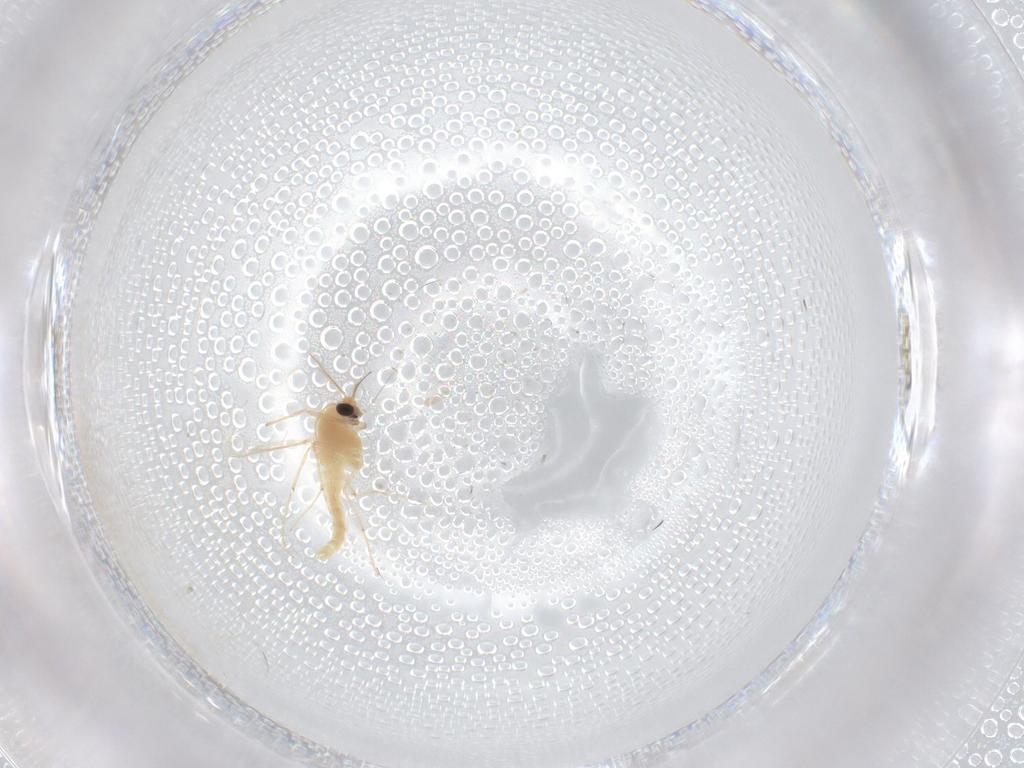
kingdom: Animalia
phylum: Arthropoda
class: Insecta
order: Diptera
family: Chironomidae
